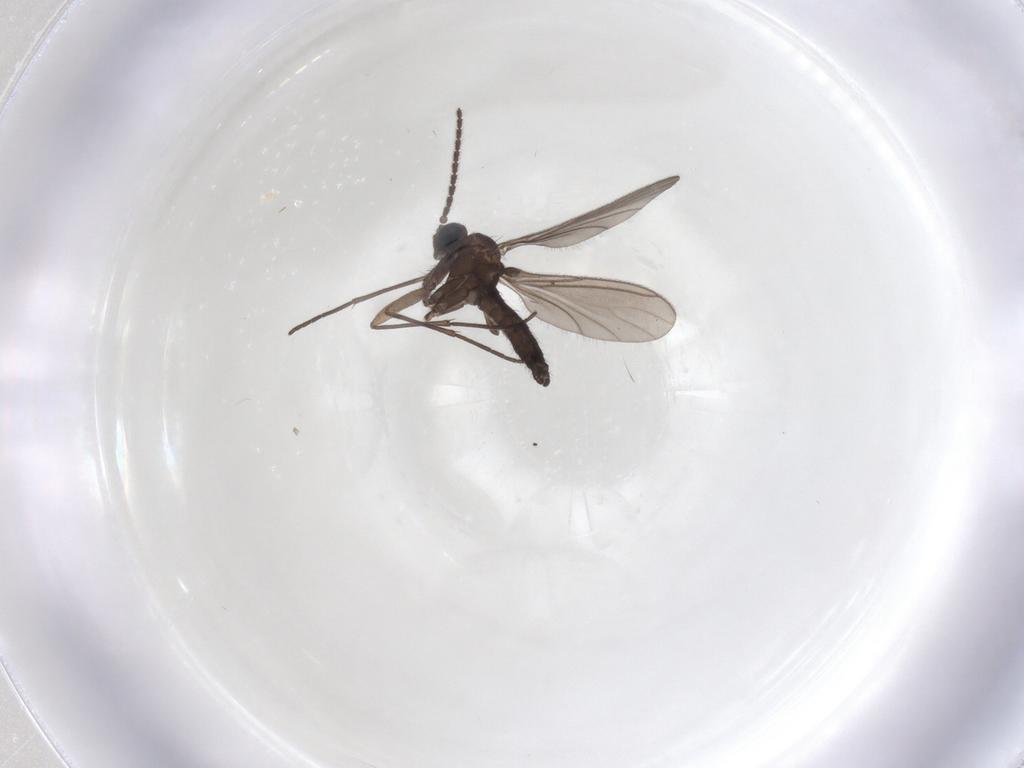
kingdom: Animalia
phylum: Arthropoda
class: Insecta
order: Diptera
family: Sciaridae
